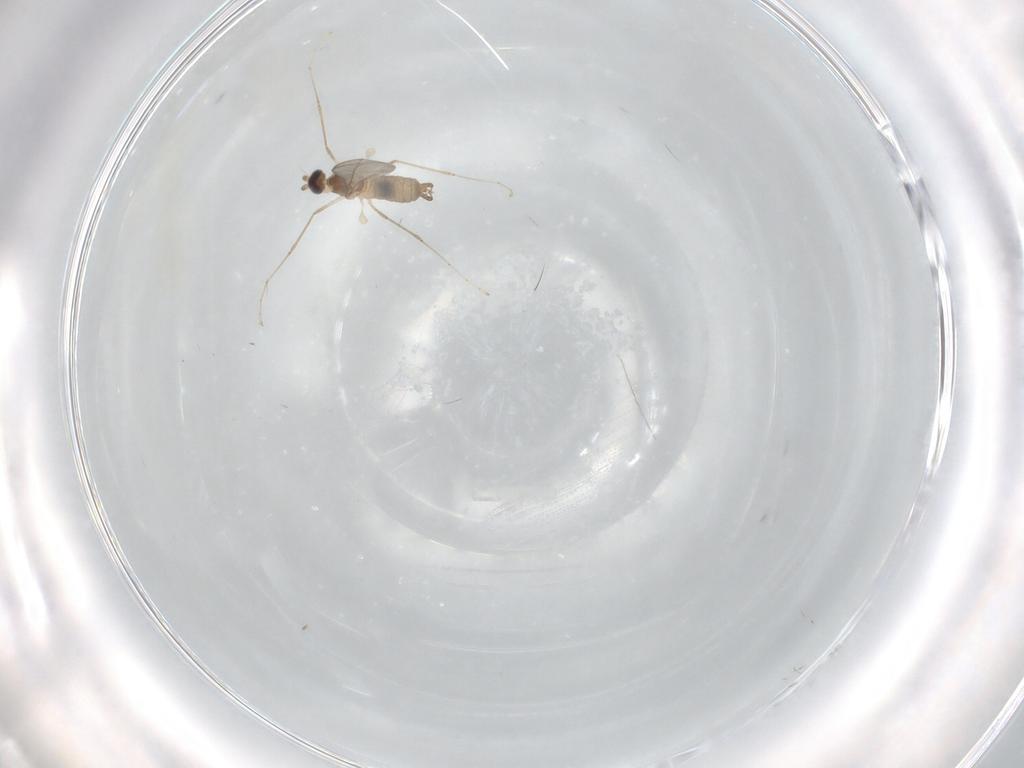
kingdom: Animalia
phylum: Arthropoda
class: Insecta
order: Diptera
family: Cecidomyiidae
